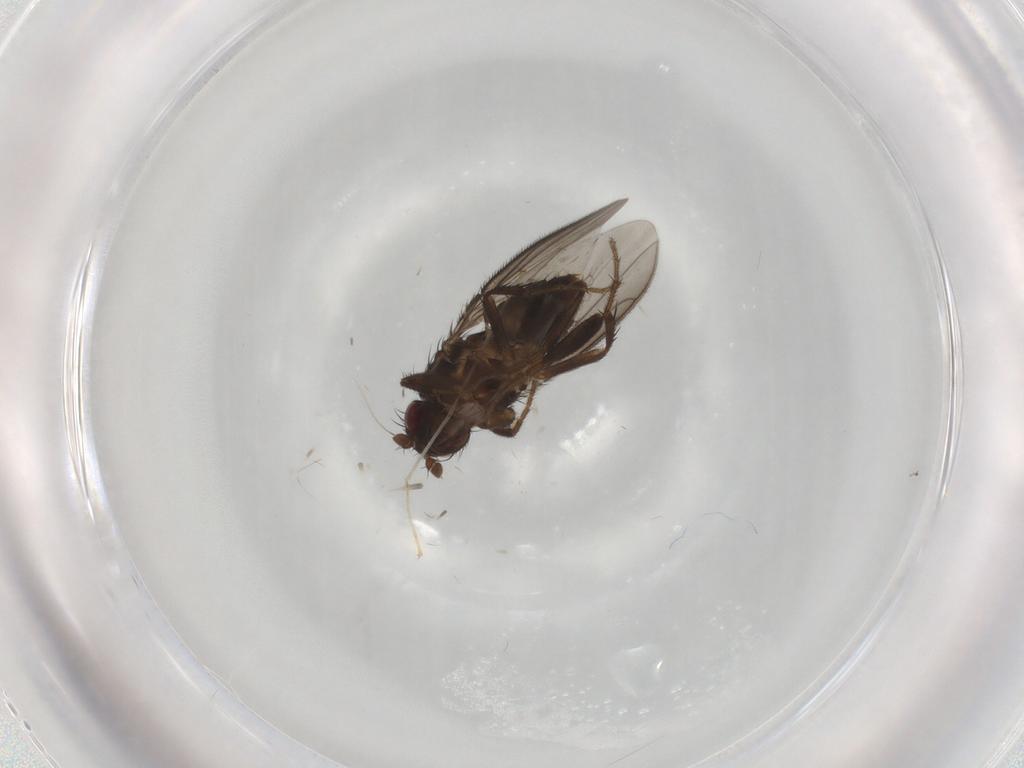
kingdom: Animalia
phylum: Arthropoda
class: Insecta
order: Diptera
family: Sphaeroceridae
